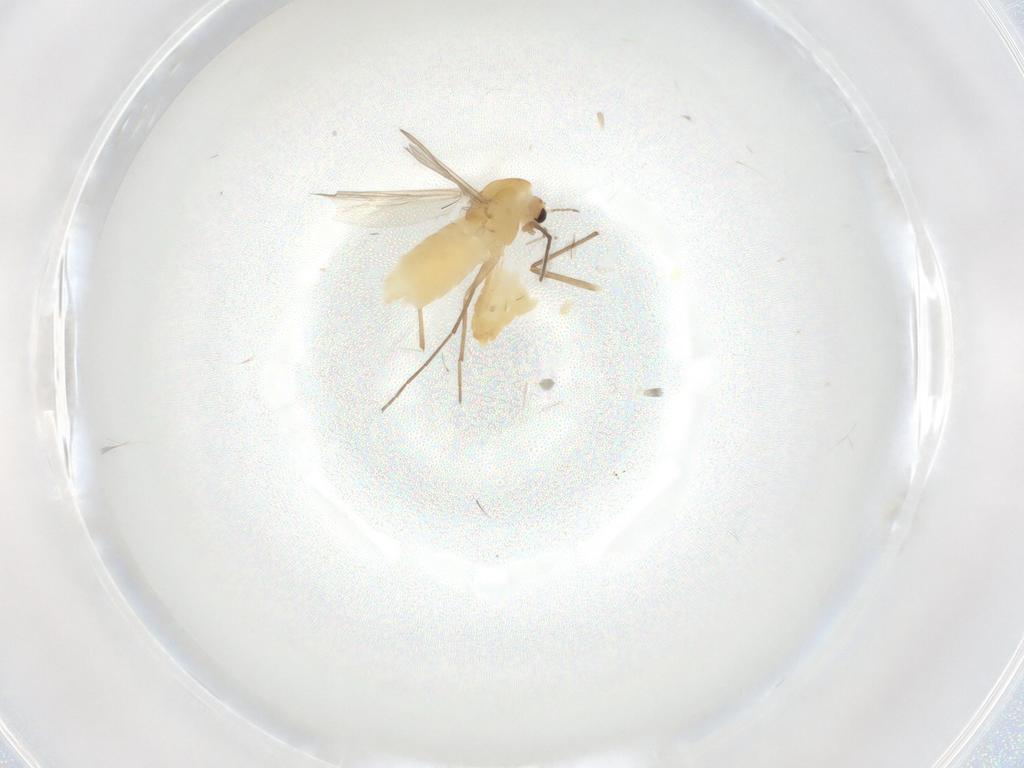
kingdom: Animalia
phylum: Arthropoda
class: Insecta
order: Diptera
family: Chironomidae
